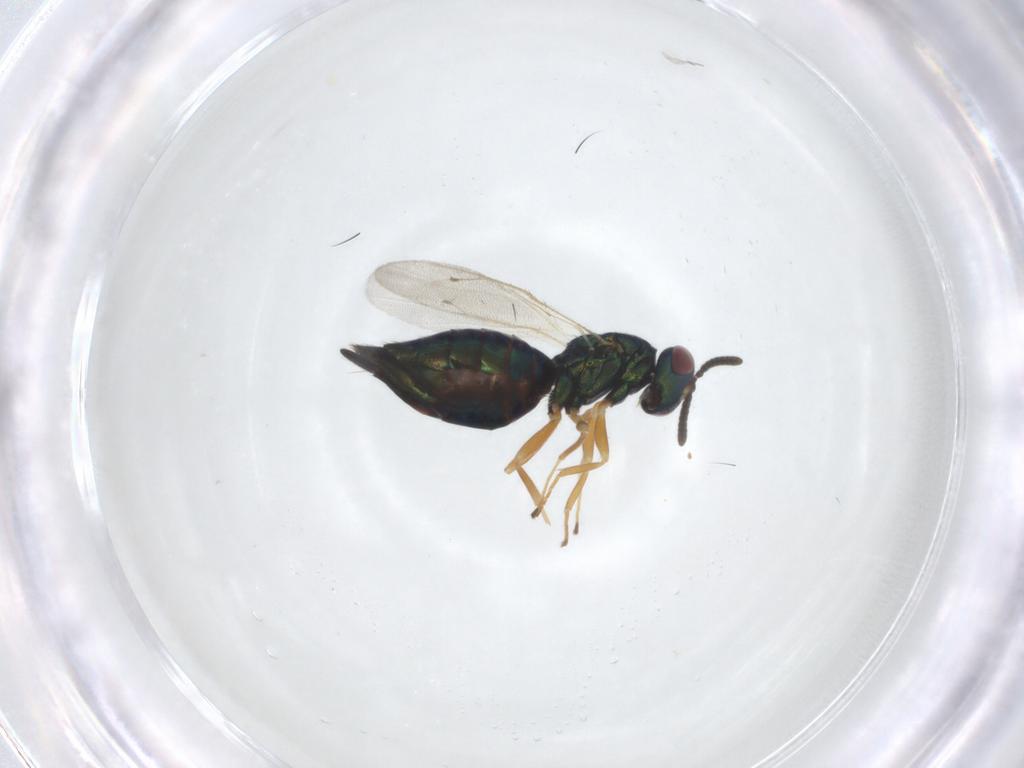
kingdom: Animalia
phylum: Arthropoda
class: Insecta
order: Hymenoptera
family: Pteromalidae
